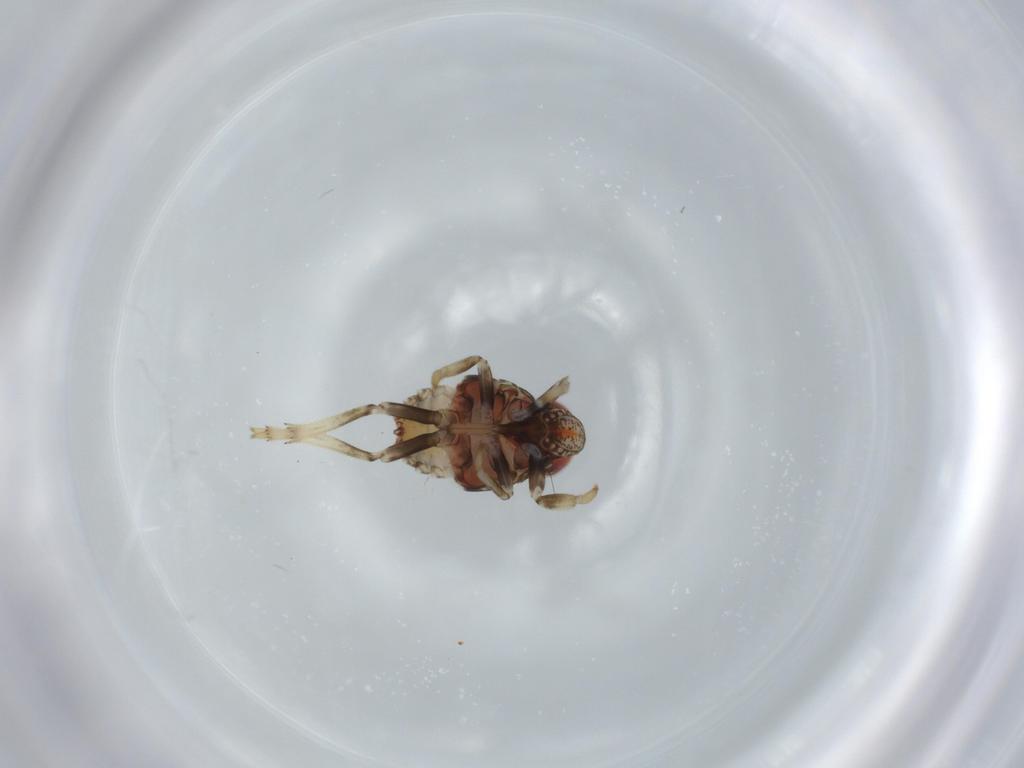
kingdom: Animalia
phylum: Arthropoda
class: Insecta
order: Hemiptera
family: Issidae
